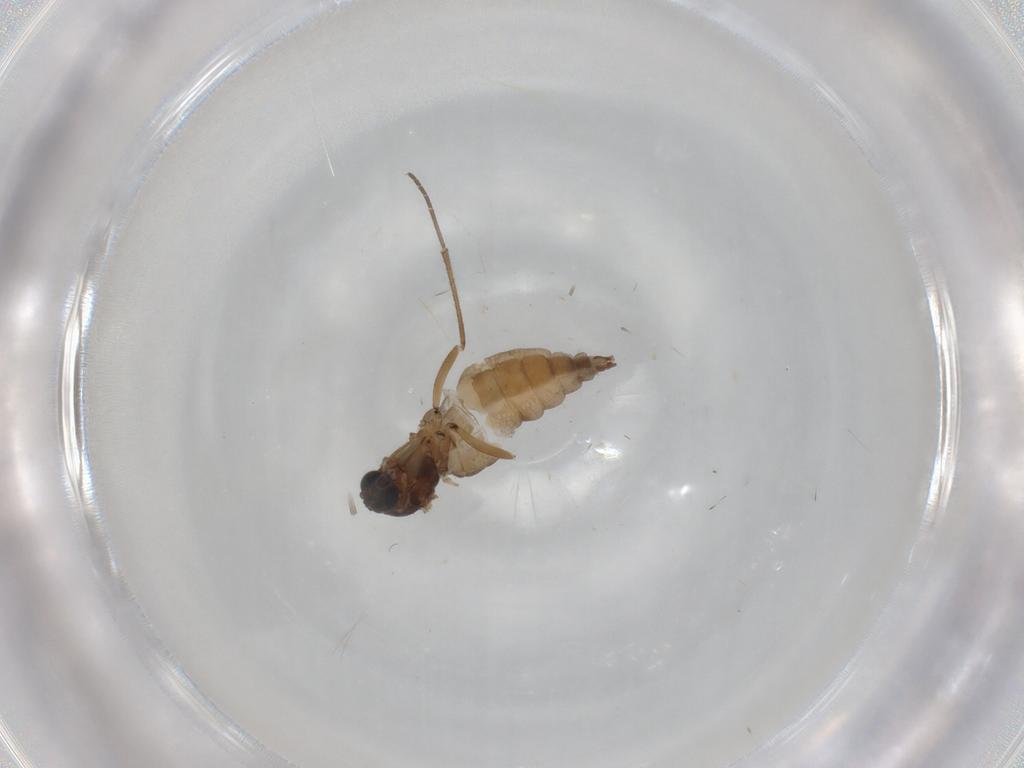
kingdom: Animalia
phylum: Arthropoda
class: Insecta
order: Diptera
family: Sciaridae
